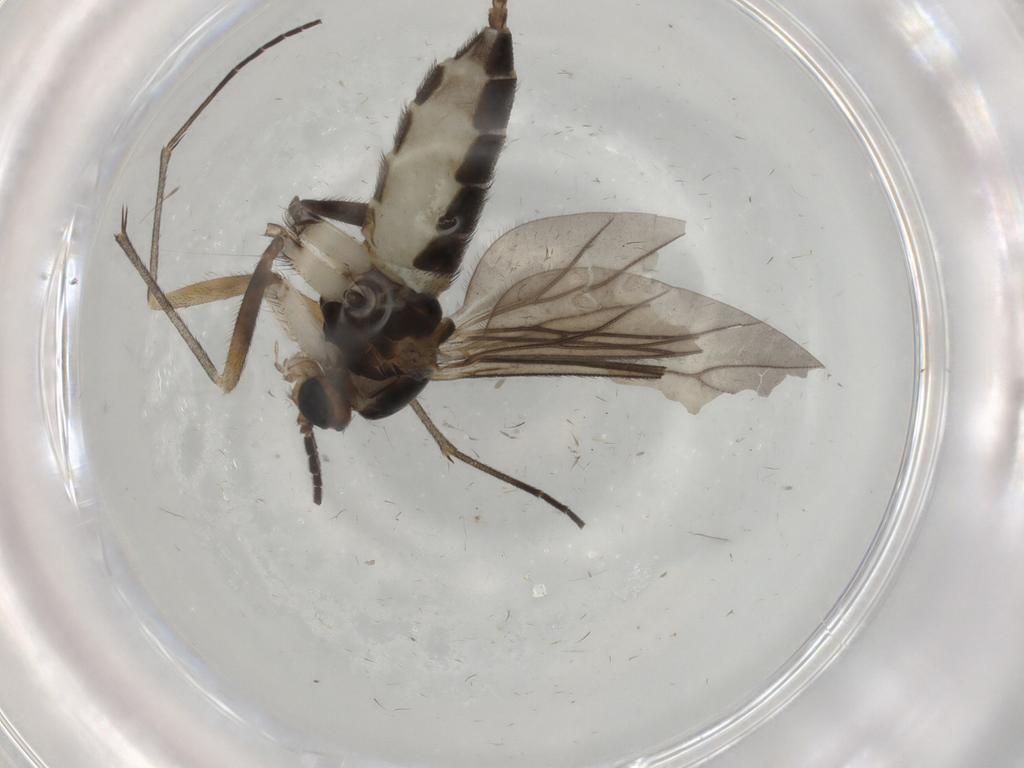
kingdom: Animalia
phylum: Arthropoda
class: Insecta
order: Diptera
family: Sciaridae
